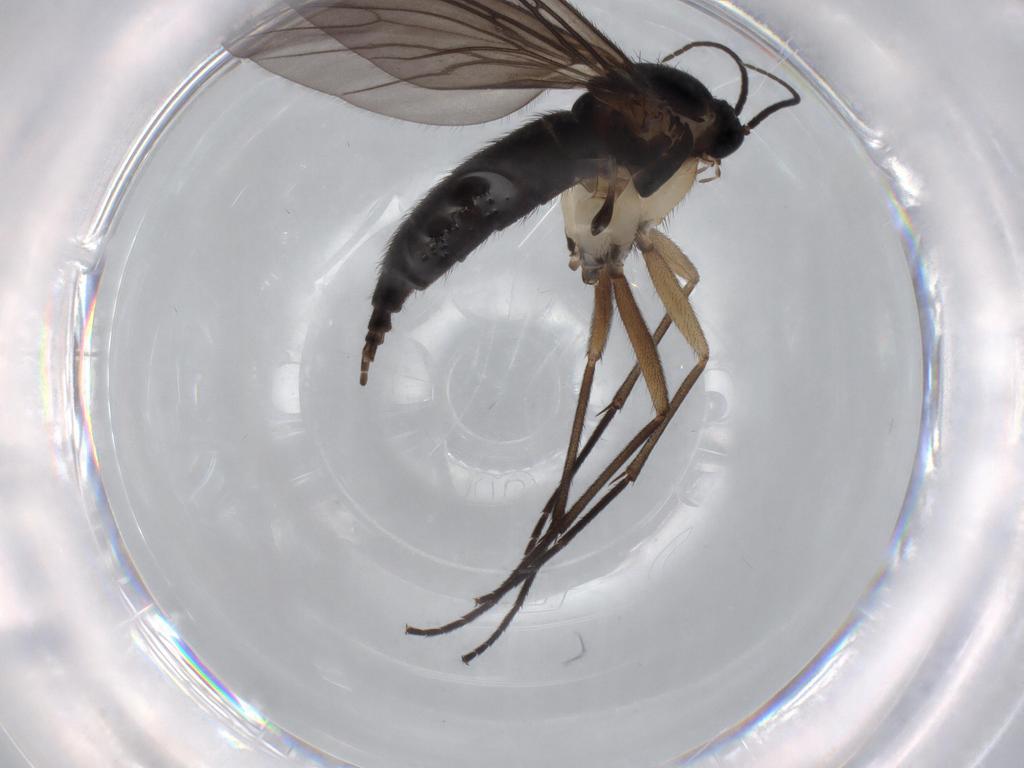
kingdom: Animalia
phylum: Arthropoda
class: Insecta
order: Diptera
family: Sciaridae
